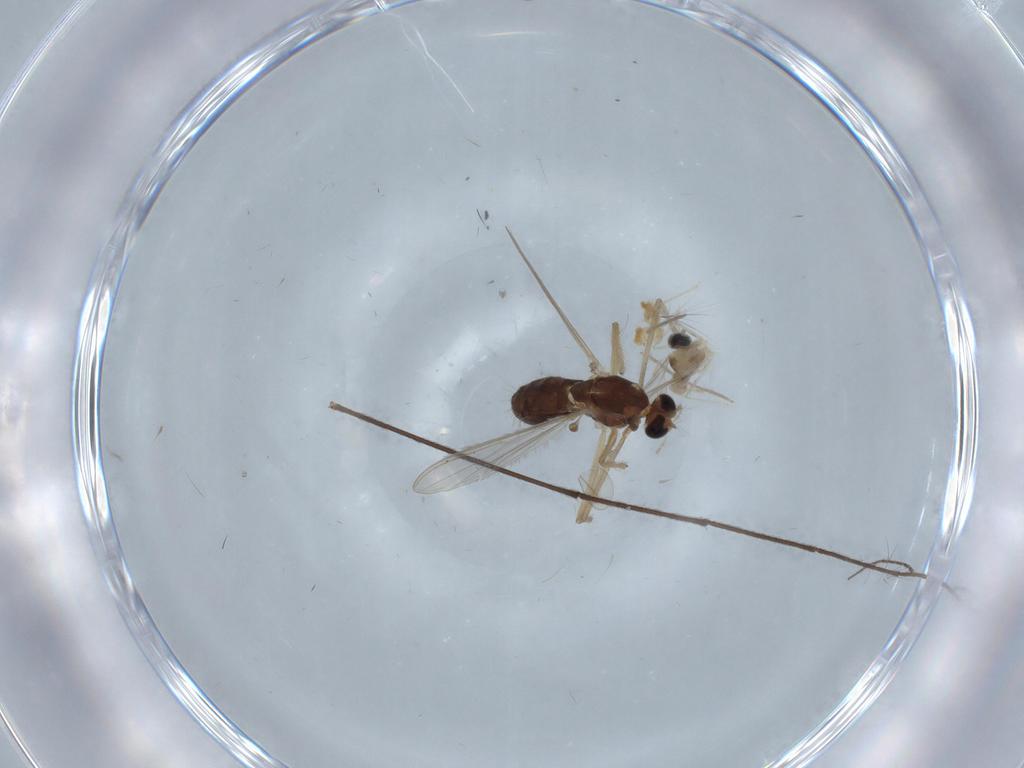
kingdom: Animalia
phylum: Arthropoda
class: Insecta
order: Diptera
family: Chironomidae
